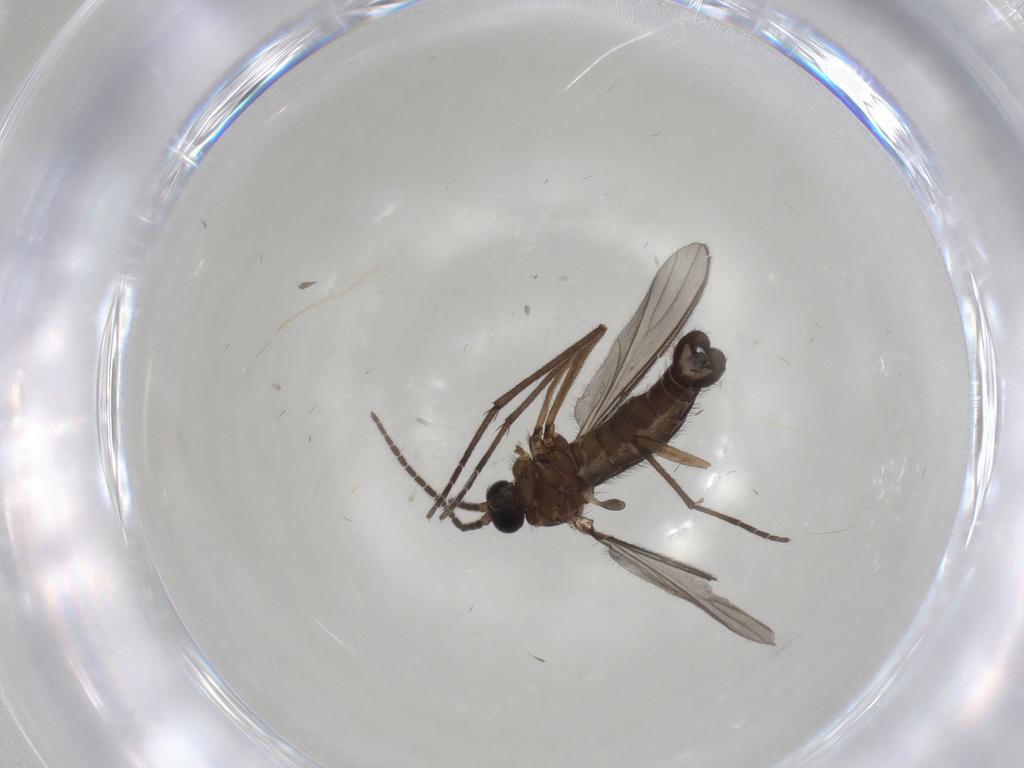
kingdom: Animalia
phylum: Arthropoda
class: Insecta
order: Diptera
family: Sciaridae
